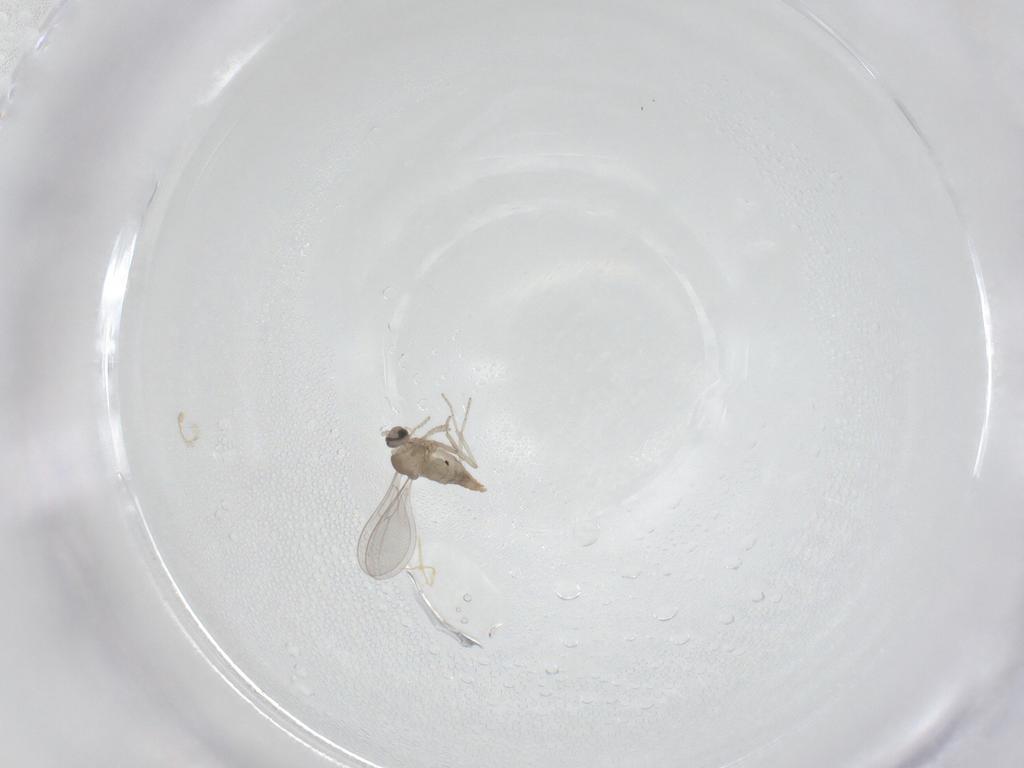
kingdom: Animalia
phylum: Arthropoda
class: Insecta
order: Diptera
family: Cecidomyiidae
